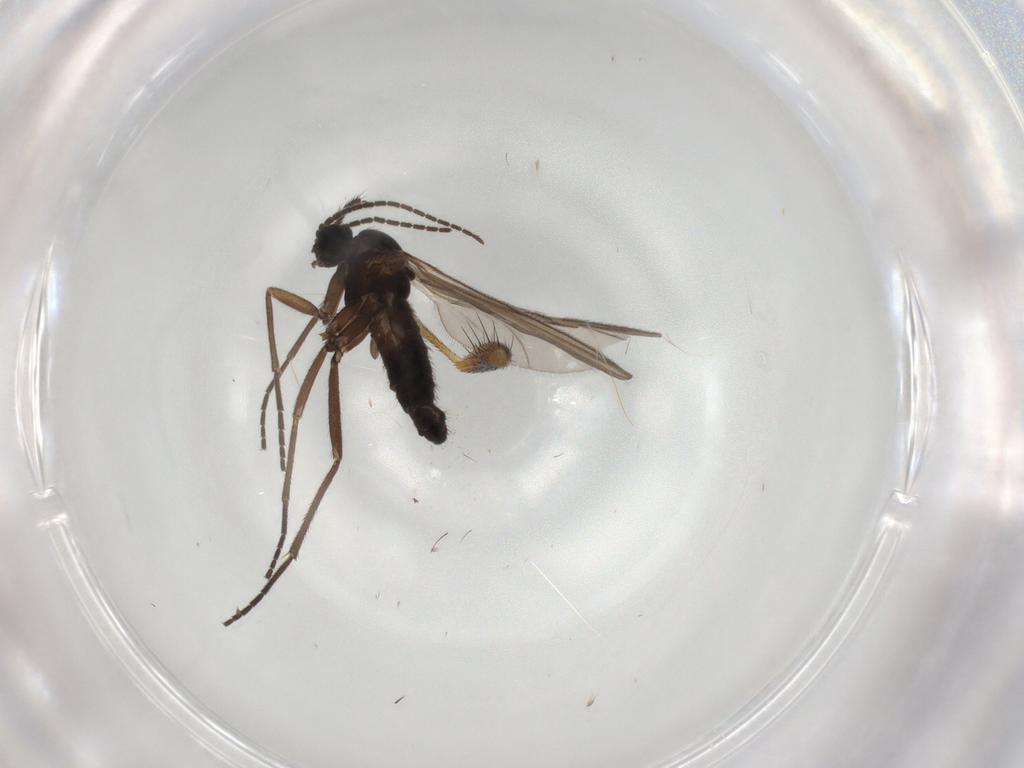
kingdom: Animalia
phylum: Arthropoda
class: Insecta
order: Diptera
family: Sciaridae
